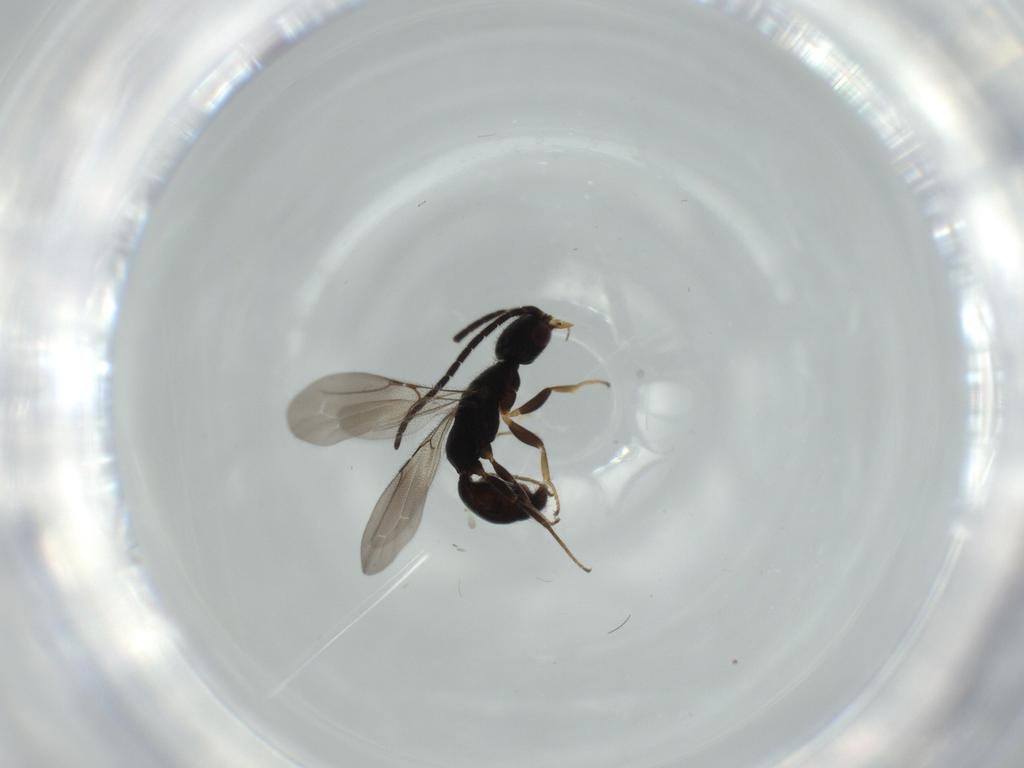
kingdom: Animalia
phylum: Arthropoda
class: Insecta
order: Hymenoptera
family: Bethylidae
